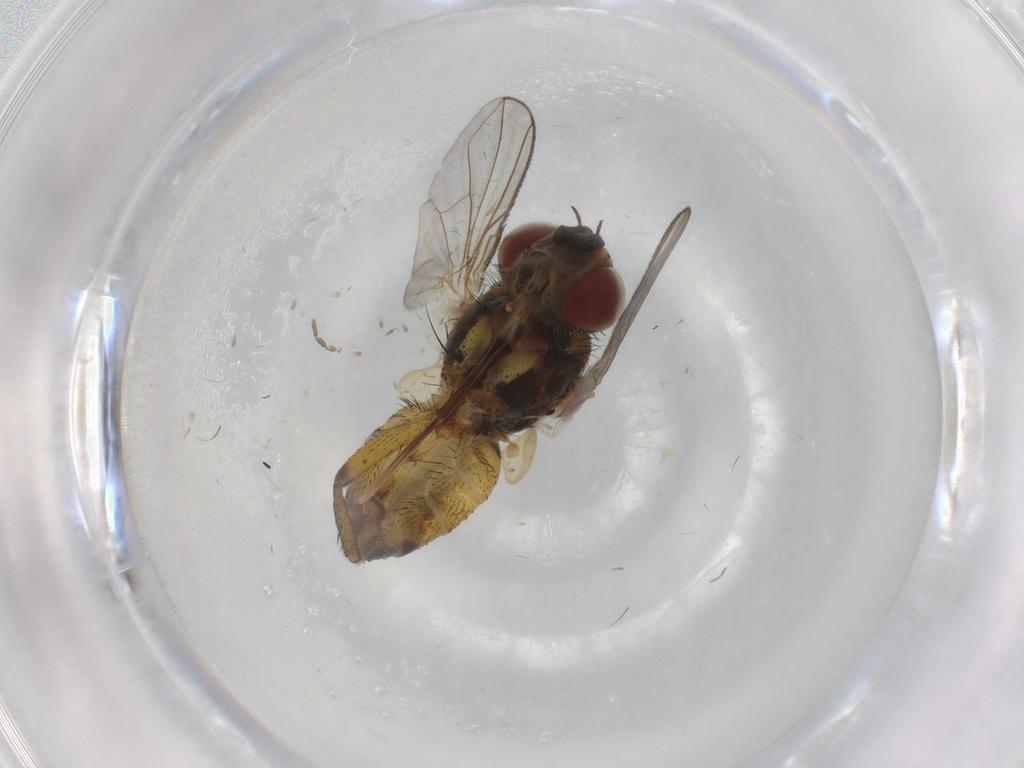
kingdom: Animalia
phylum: Arthropoda
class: Insecta
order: Diptera
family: Tachinidae
